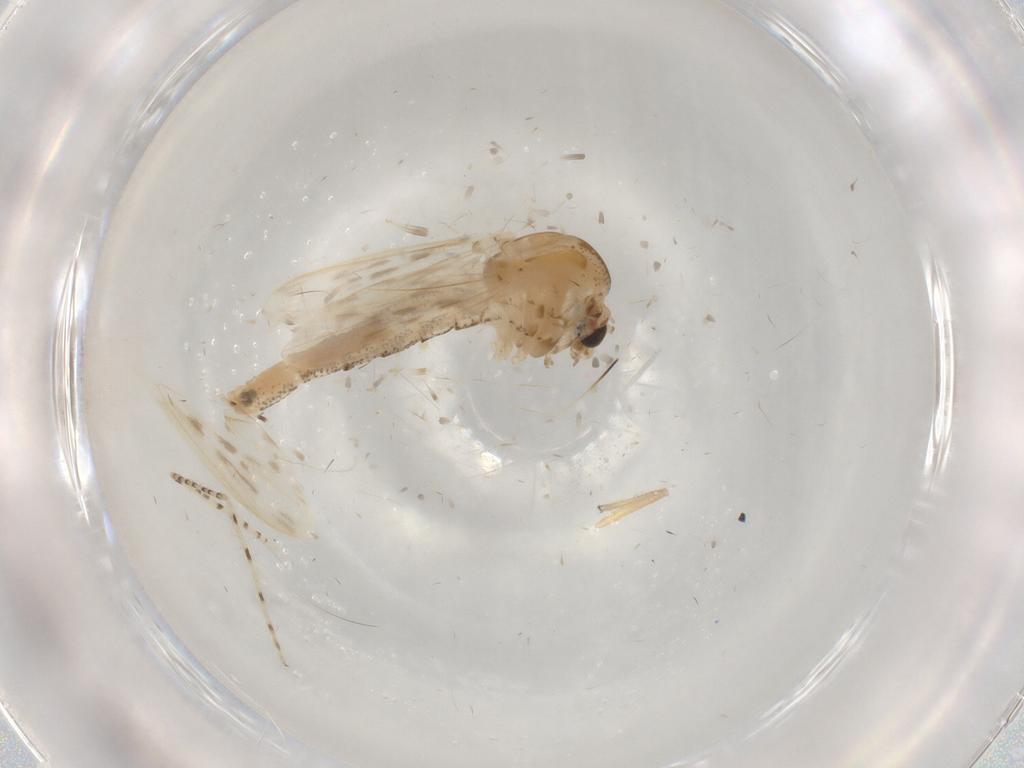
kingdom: Animalia
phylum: Arthropoda
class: Insecta
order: Diptera
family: Chaoboridae
